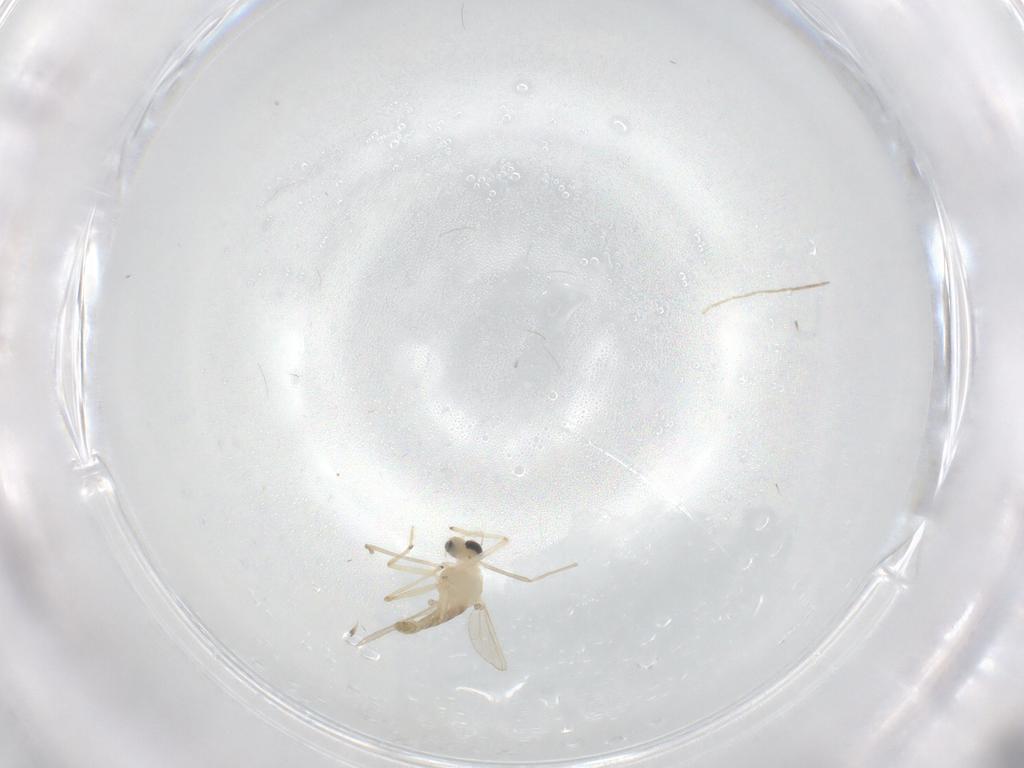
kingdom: Animalia
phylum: Arthropoda
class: Insecta
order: Diptera
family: Chironomidae
